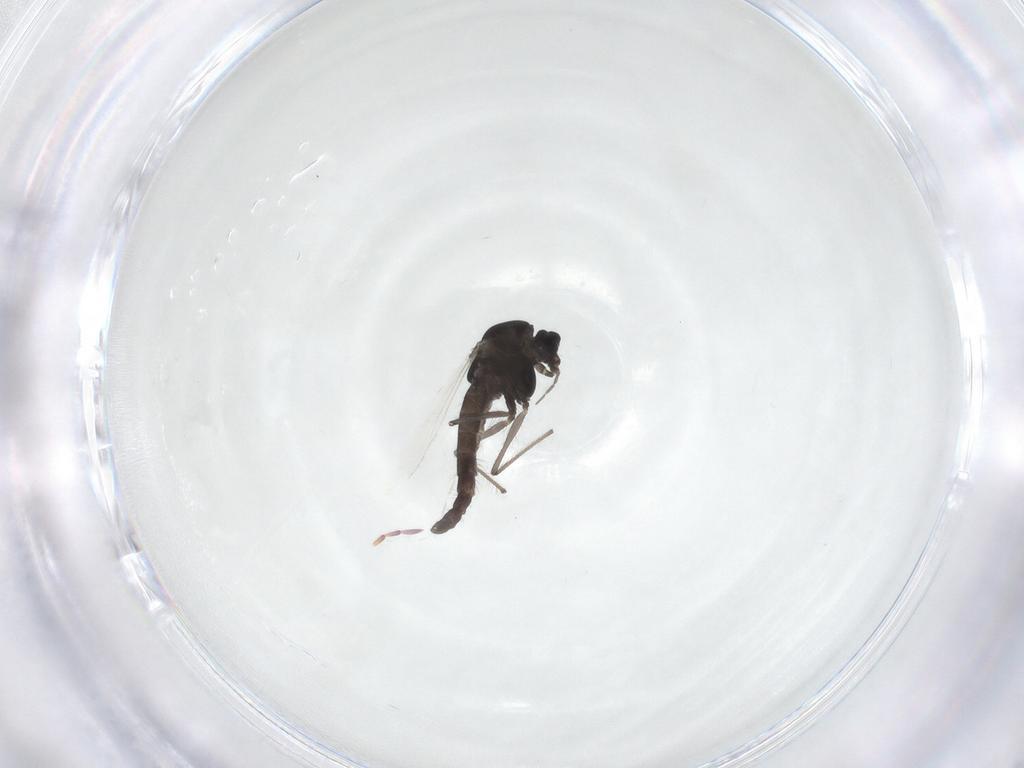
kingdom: Animalia
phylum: Arthropoda
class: Insecta
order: Diptera
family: Chironomidae
